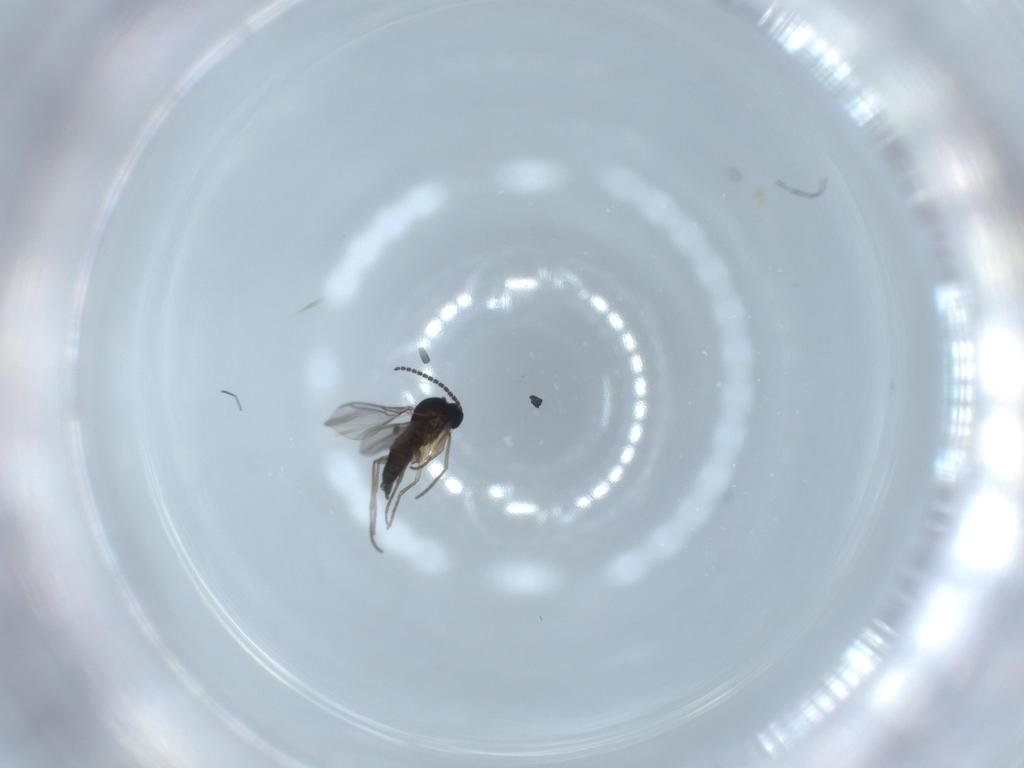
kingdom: Animalia
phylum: Arthropoda
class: Insecta
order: Diptera
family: Sciaridae
